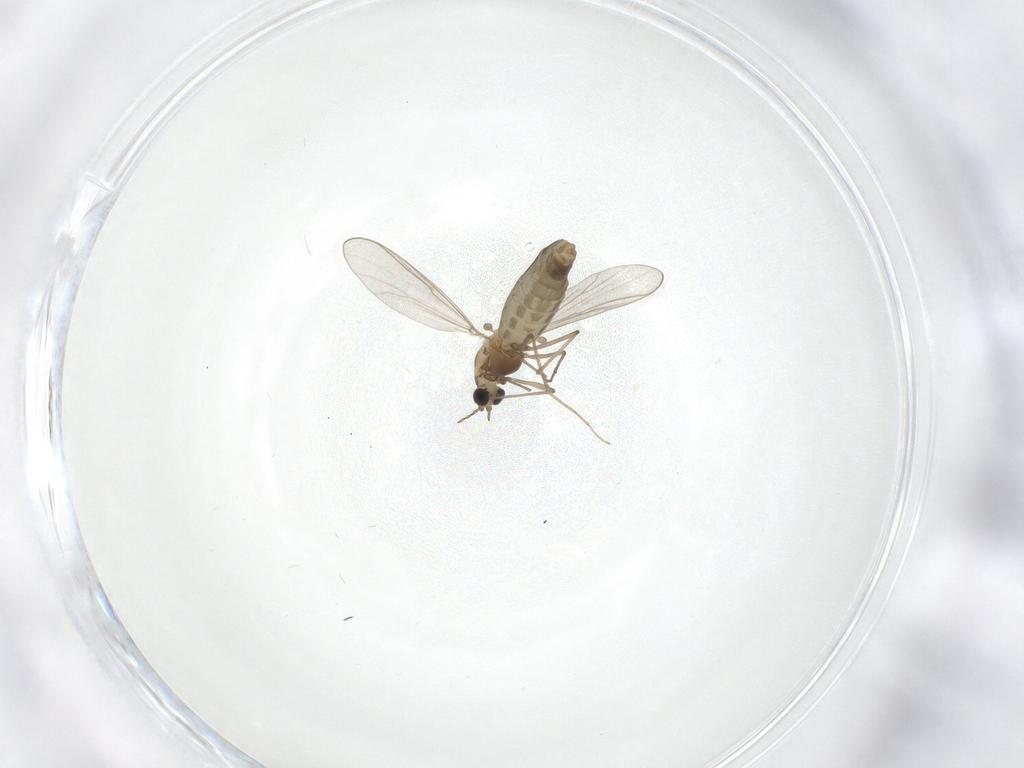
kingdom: Animalia
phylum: Arthropoda
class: Insecta
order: Diptera
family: Chironomidae
